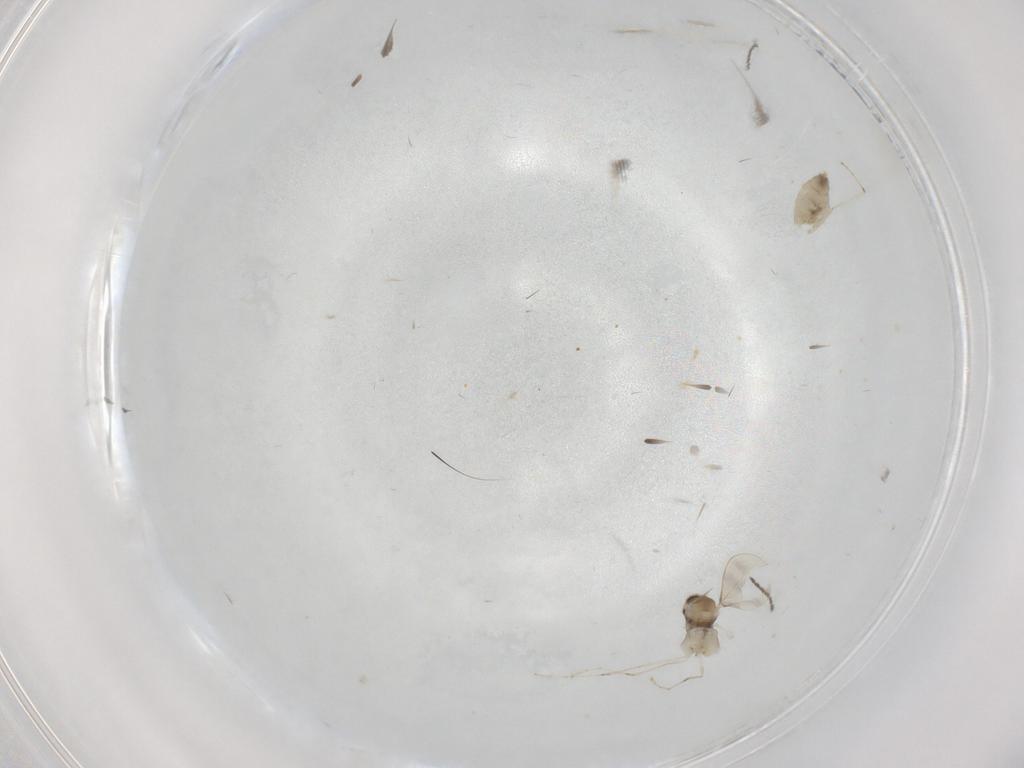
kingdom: Animalia
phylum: Arthropoda
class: Insecta
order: Diptera
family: Cecidomyiidae
